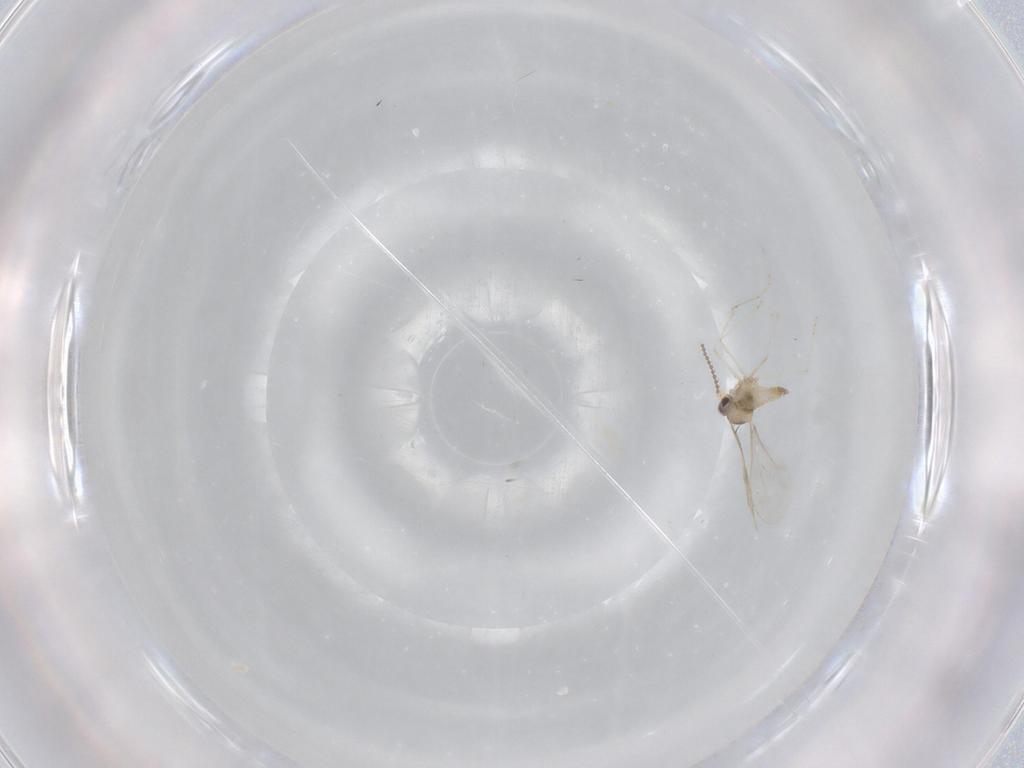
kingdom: Animalia
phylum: Arthropoda
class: Insecta
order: Diptera
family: Cecidomyiidae
